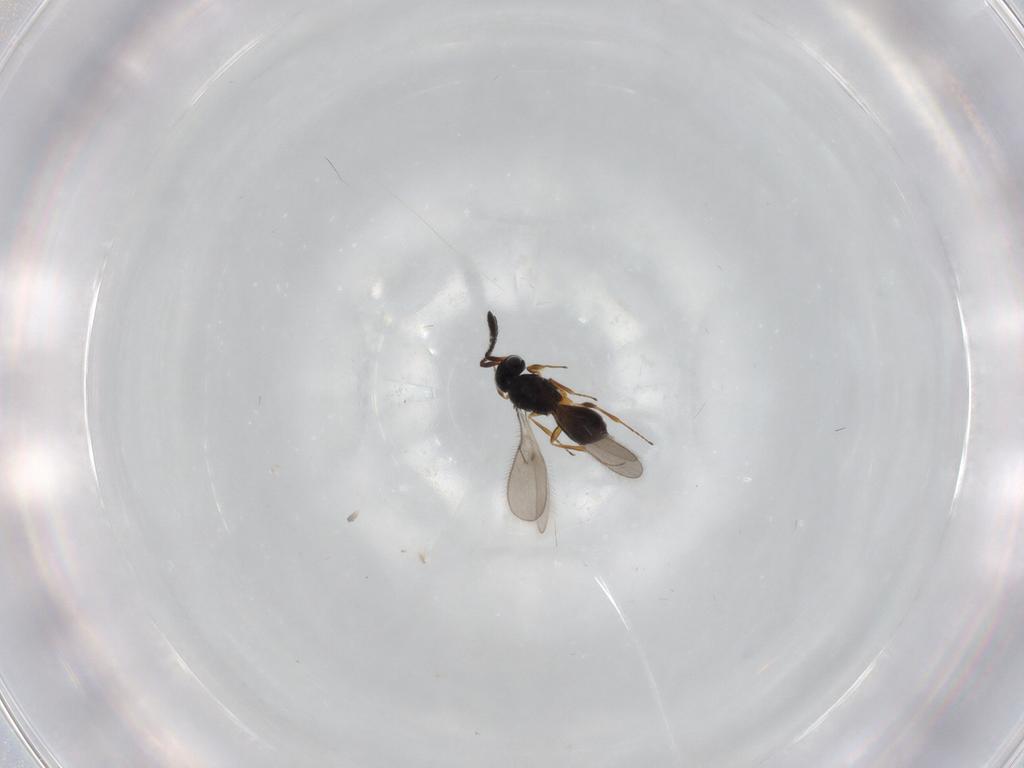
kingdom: Animalia
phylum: Arthropoda
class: Insecta
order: Hymenoptera
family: Scelionidae
